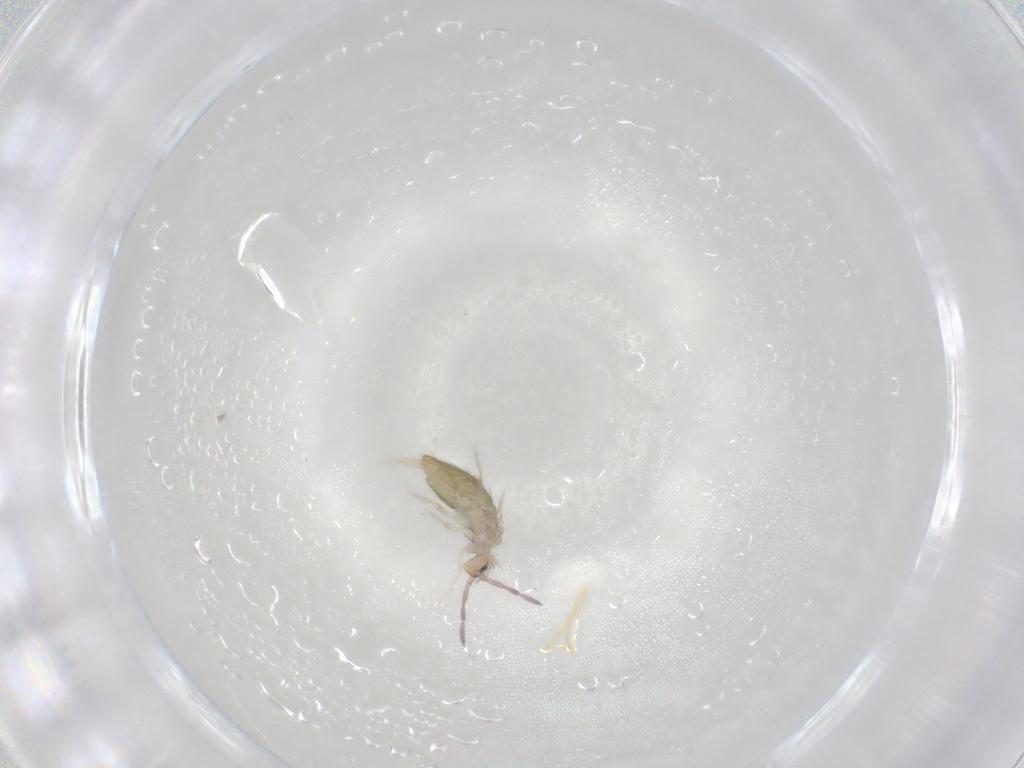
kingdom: Animalia
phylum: Arthropoda
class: Collembola
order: Entomobryomorpha
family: Entomobryidae
